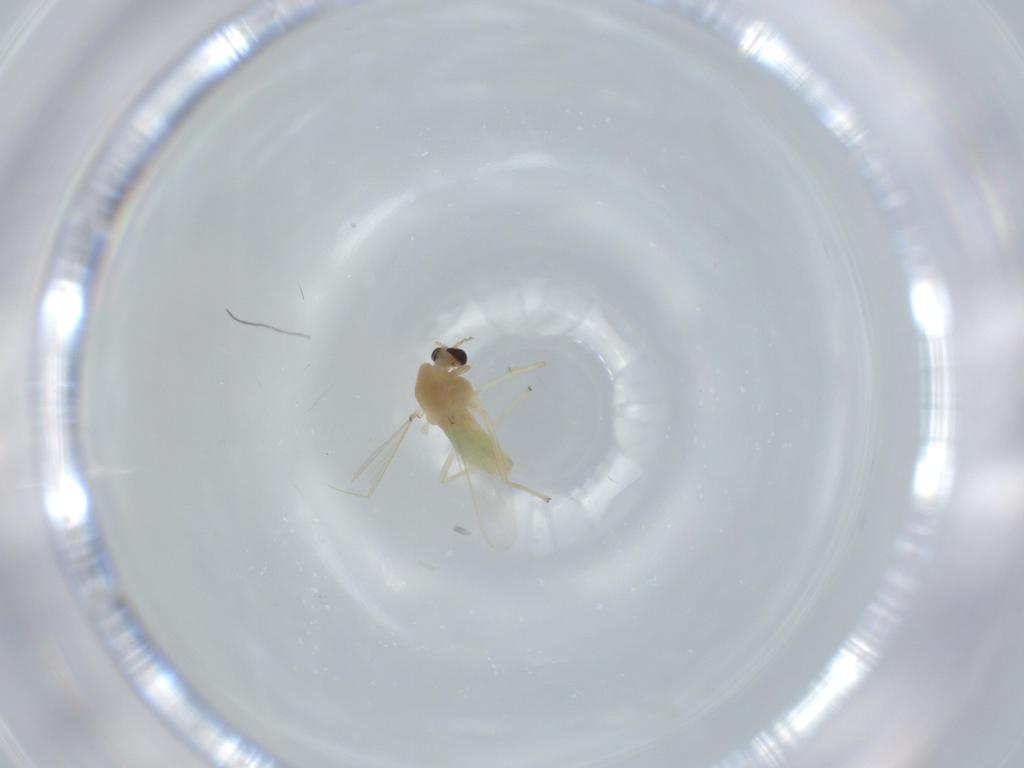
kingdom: Animalia
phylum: Arthropoda
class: Insecta
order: Diptera
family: Chironomidae
